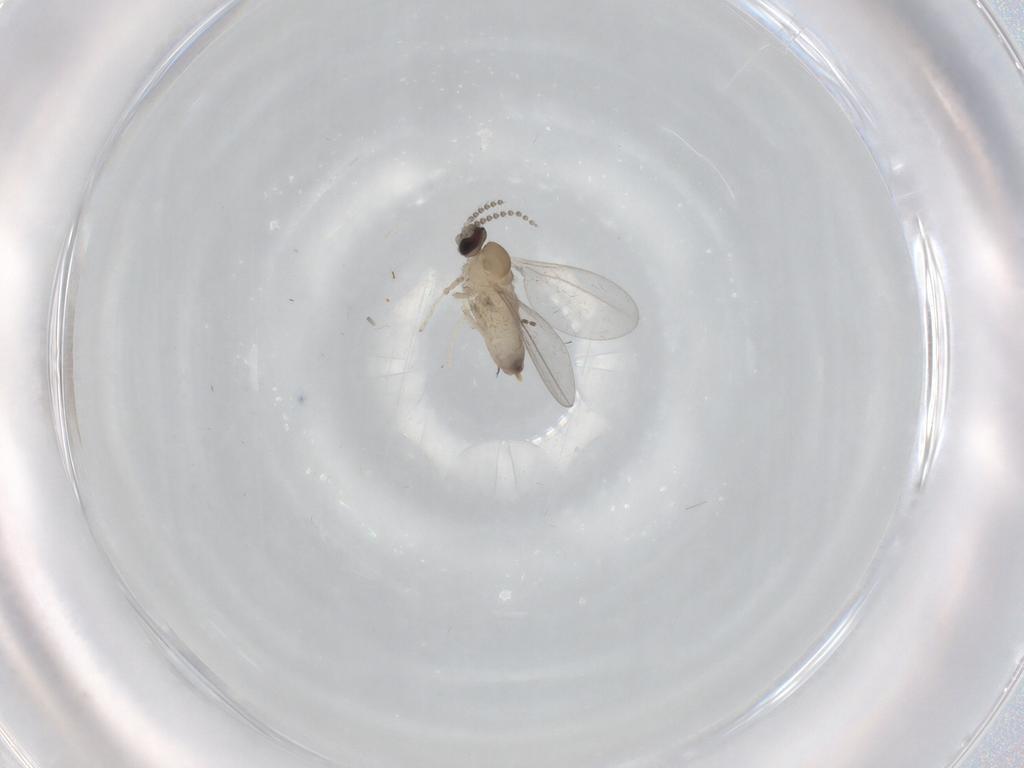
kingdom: Animalia
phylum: Arthropoda
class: Insecta
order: Diptera
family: Cecidomyiidae
